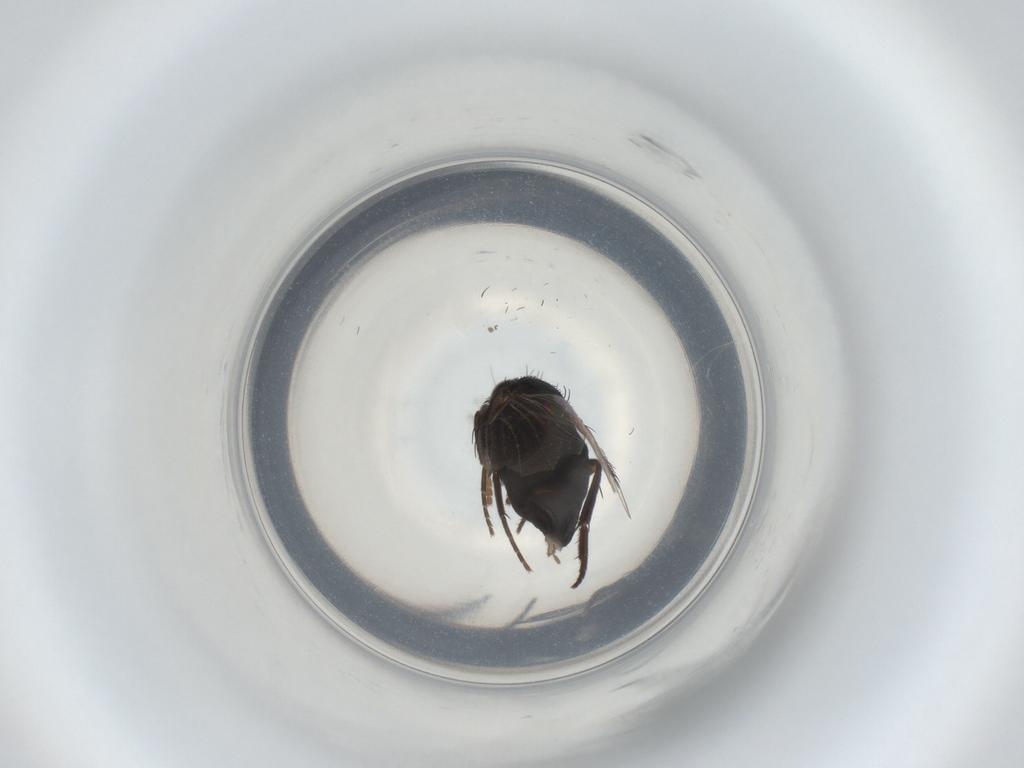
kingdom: Animalia
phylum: Arthropoda
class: Insecta
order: Diptera
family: Phoridae
